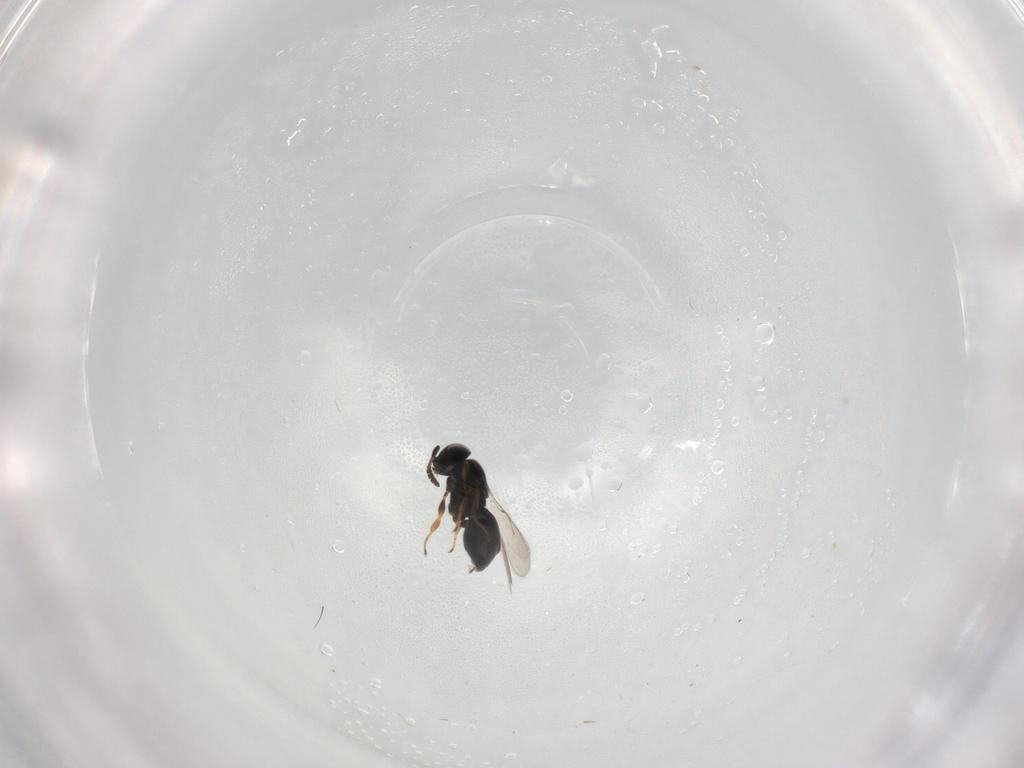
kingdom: Animalia
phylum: Arthropoda
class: Insecta
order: Hymenoptera
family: Scelionidae
